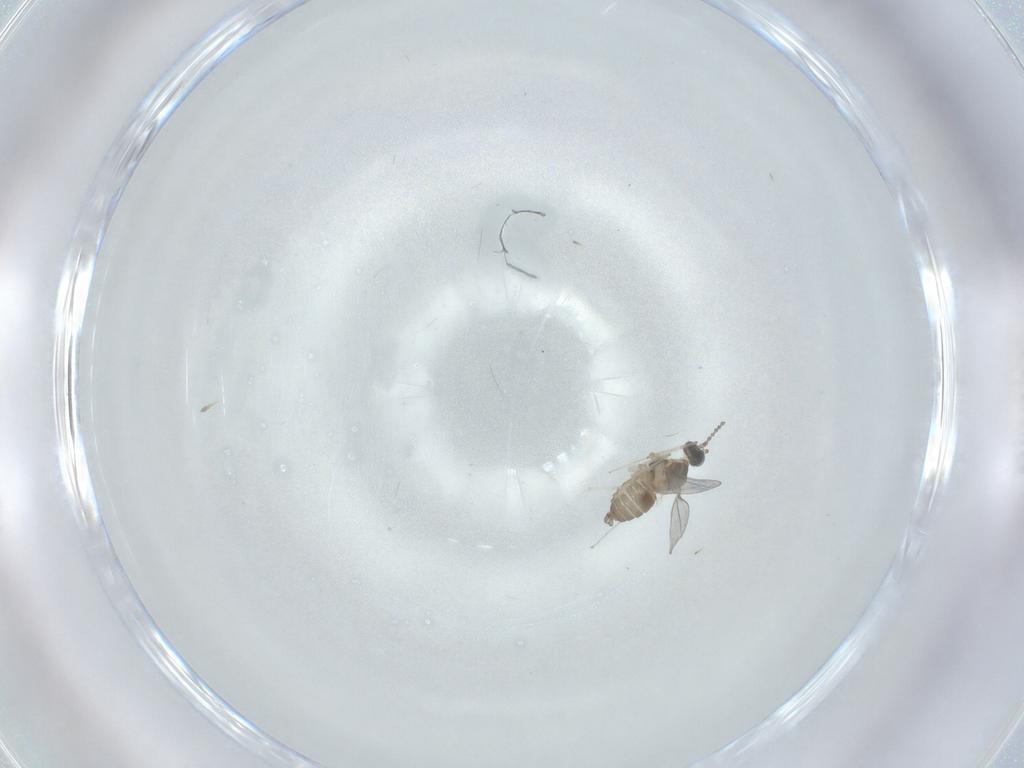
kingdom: Animalia
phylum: Arthropoda
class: Insecta
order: Diptera
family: Cecidomyiidae
